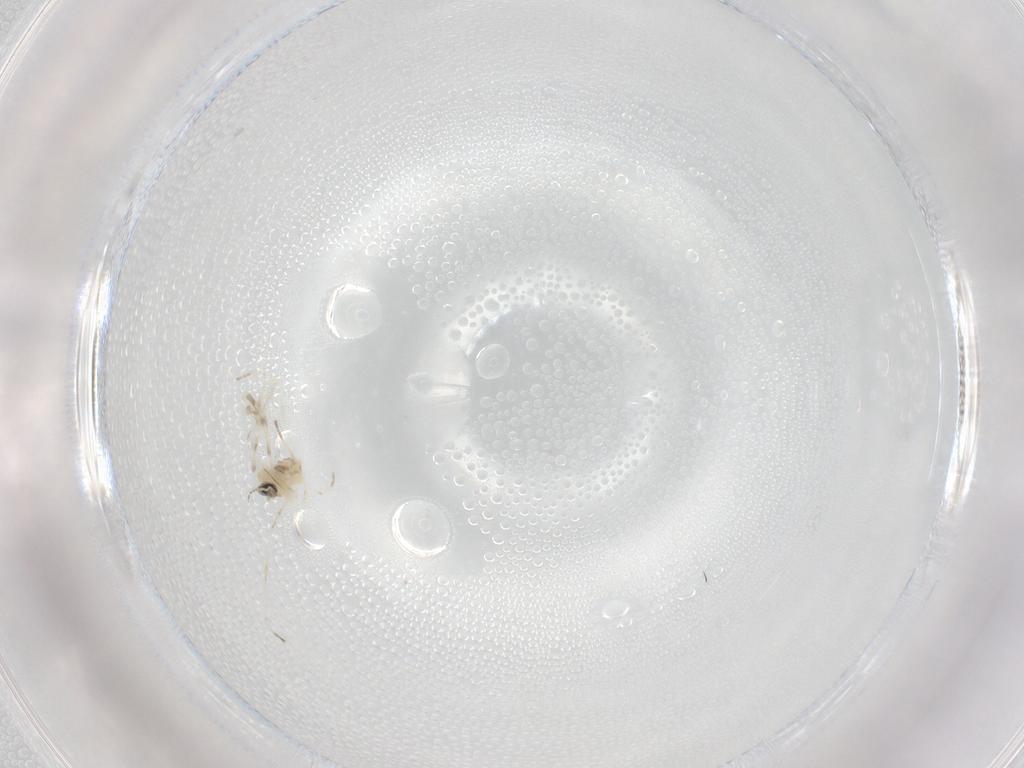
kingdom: Animalia
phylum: Arthropoda
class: Insecta
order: Diptera
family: Cecidomyiidae
